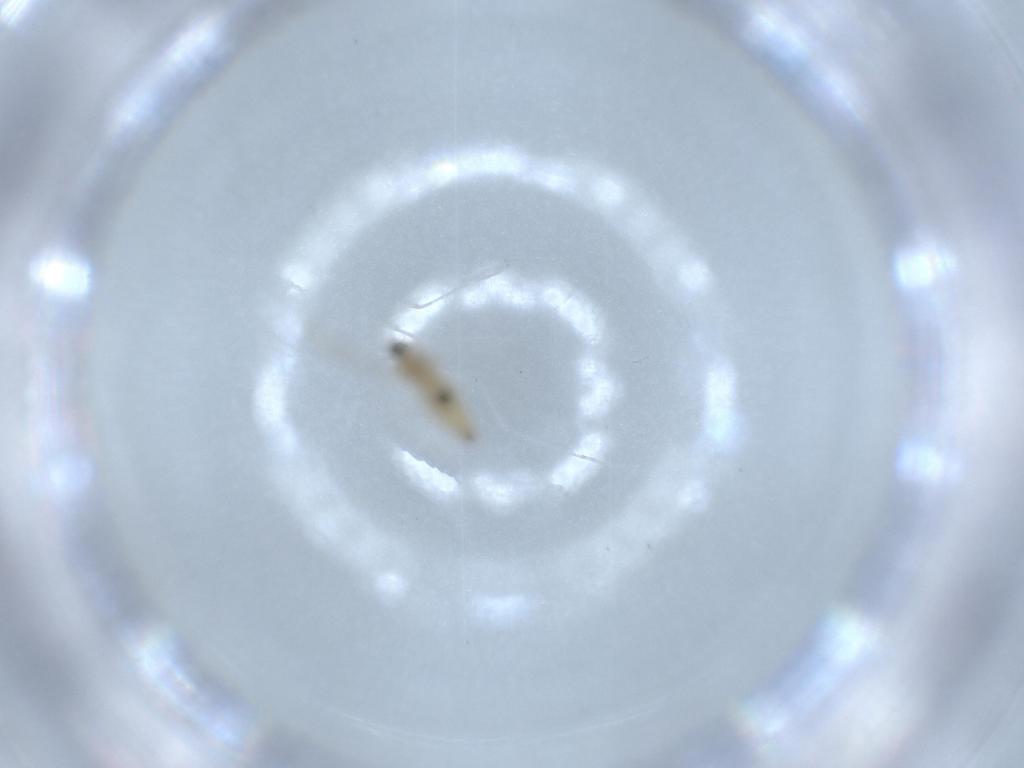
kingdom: Animalia
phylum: Arthropoda
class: Insecta
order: Diptera
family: Cecidomyiidae
